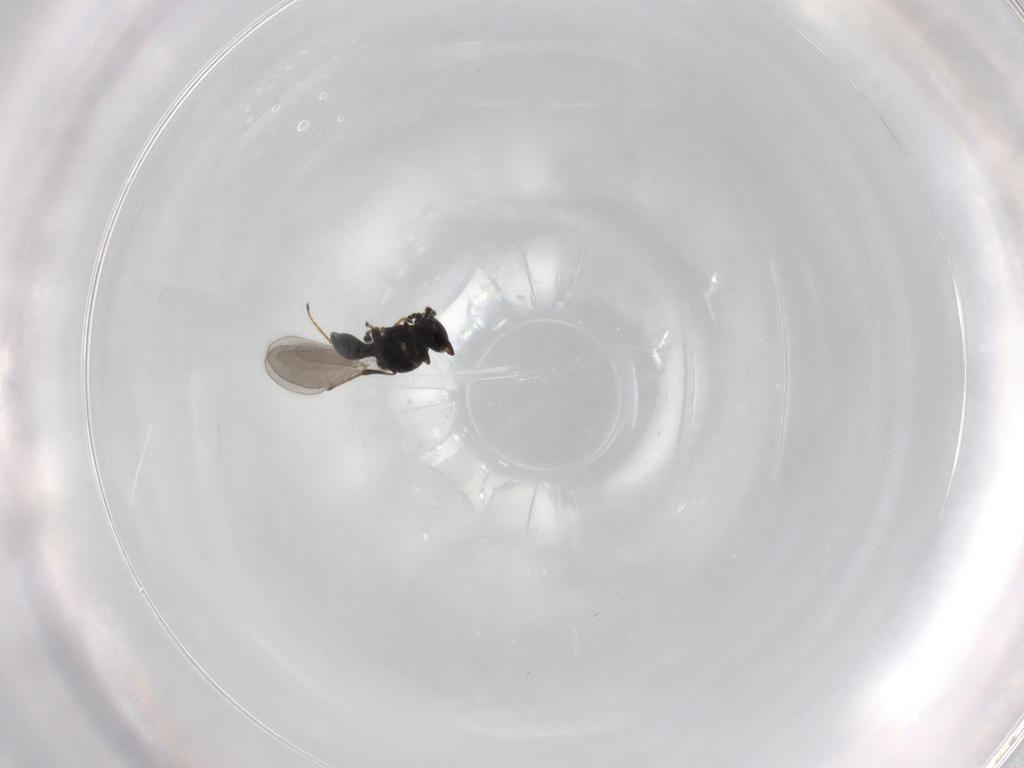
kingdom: Animalia
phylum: Arthropoda
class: Insecta
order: Hymenoptera
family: Platygastridae
